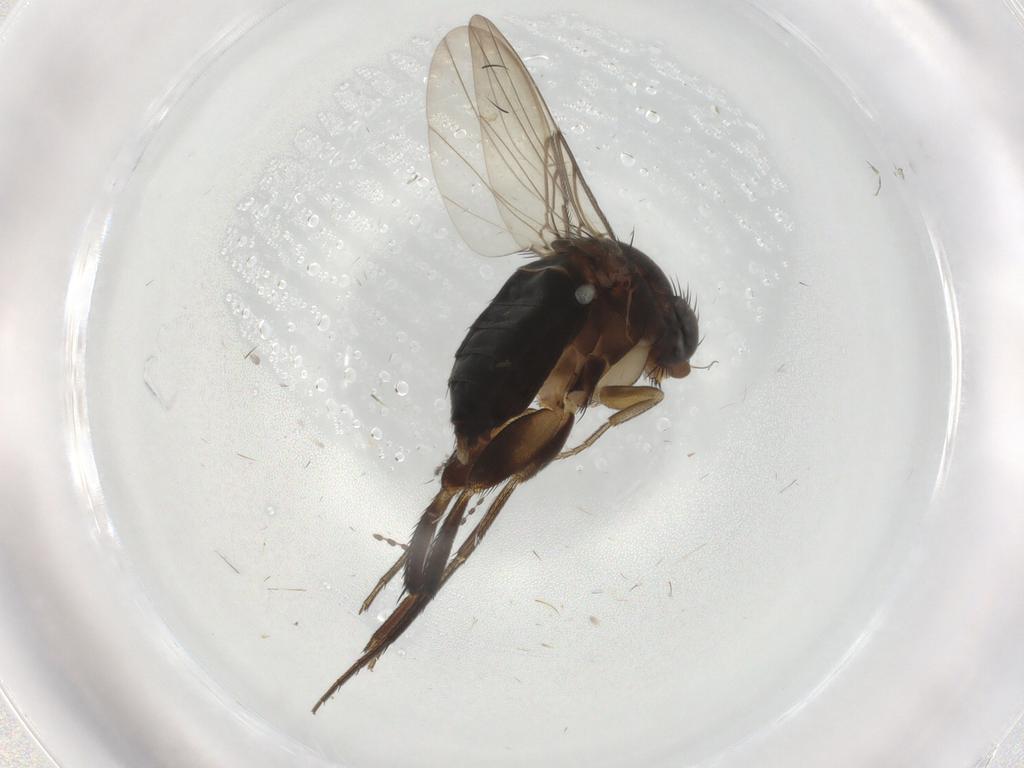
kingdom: Animalia
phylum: Arthropoda
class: Insecta
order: Diptera
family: Phoridae
